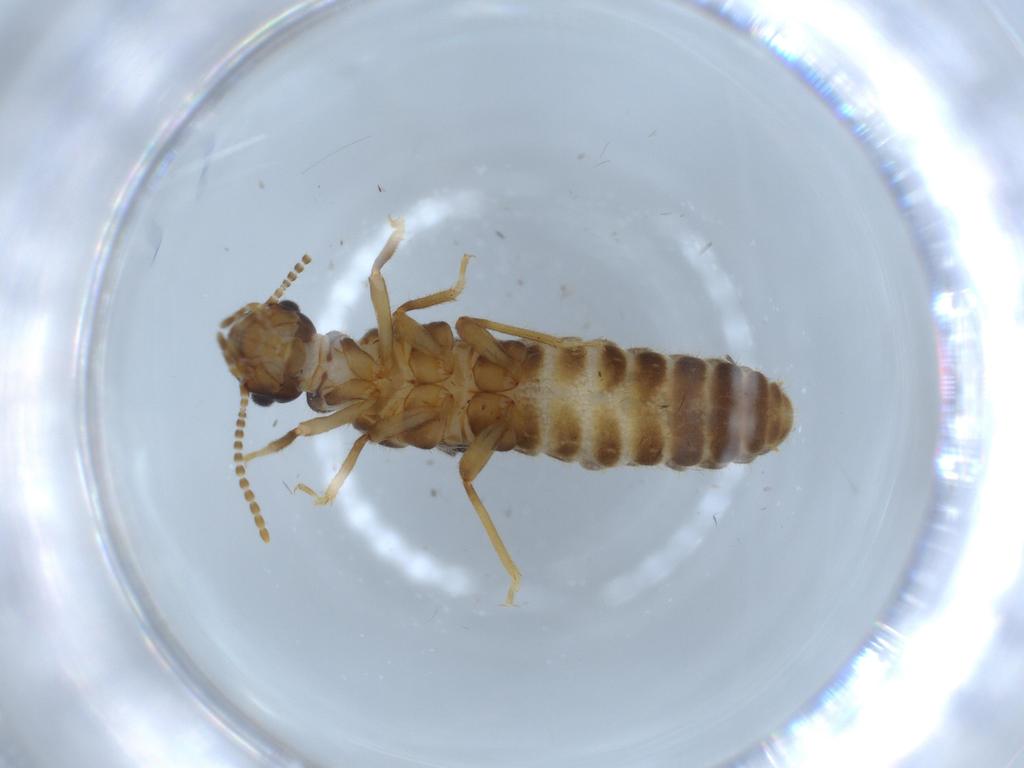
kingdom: Animalia
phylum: Arthropoda
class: Insecta
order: Blattodea
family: Termitidae
